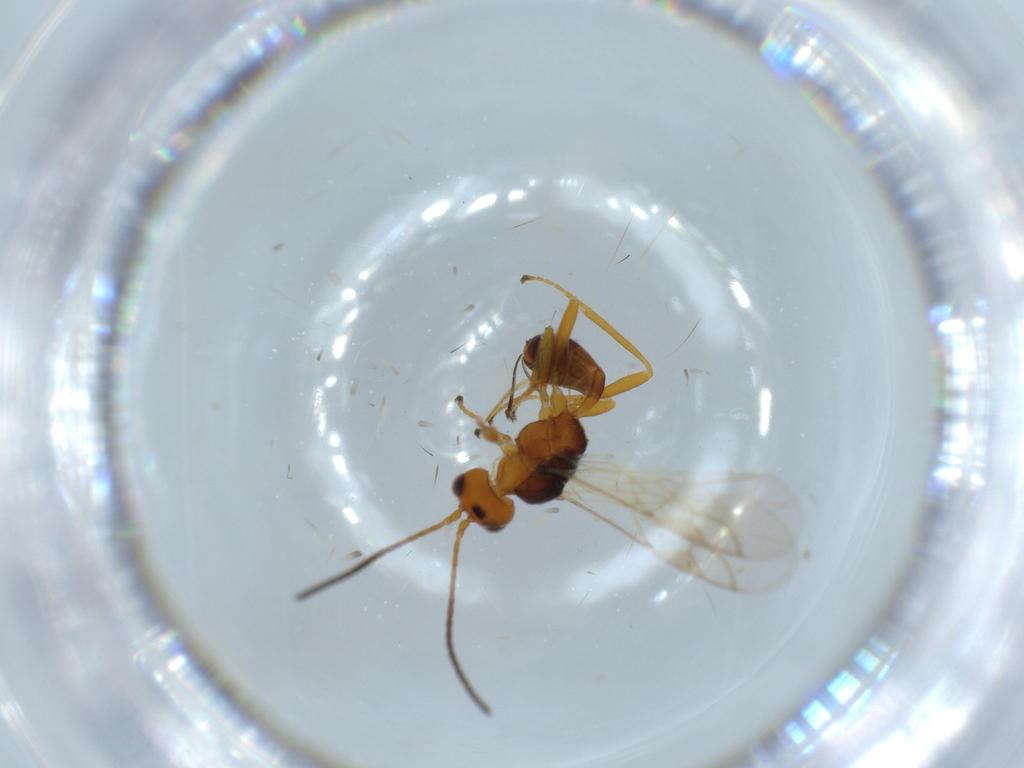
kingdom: Animalia
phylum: Arthropoda
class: Insecta
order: Hymenoptera
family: Braconidae
